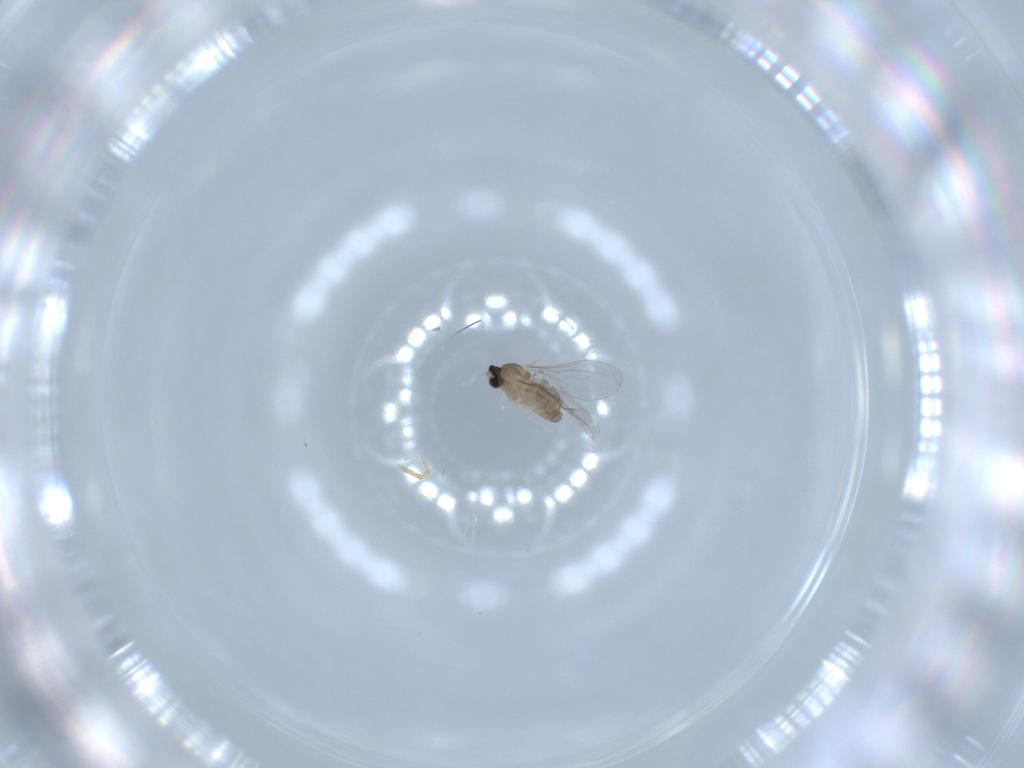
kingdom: Animalia
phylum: Arthropoda
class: Insecta
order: Diptera
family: Cecidomyiidae
